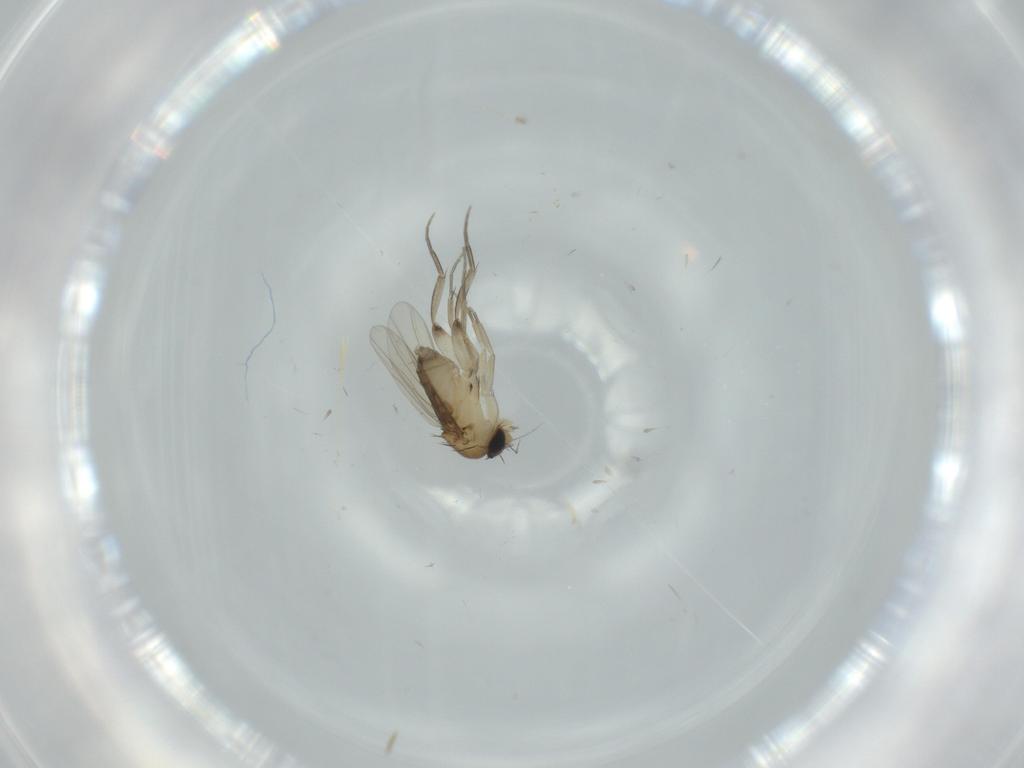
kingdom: Animalia
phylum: Arthropoda
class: Insecta
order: Diptera
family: Phoridae
